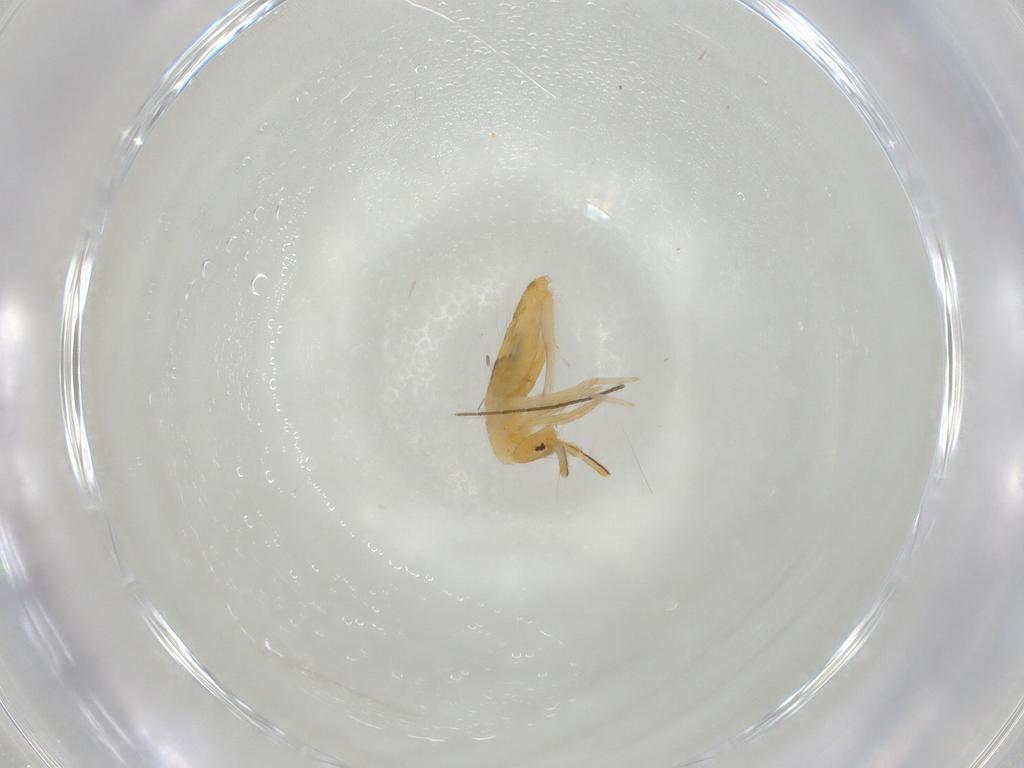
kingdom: Animalia
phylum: Arthropoda
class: Collembola
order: Entomobryomorpha
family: Entomobryidae
